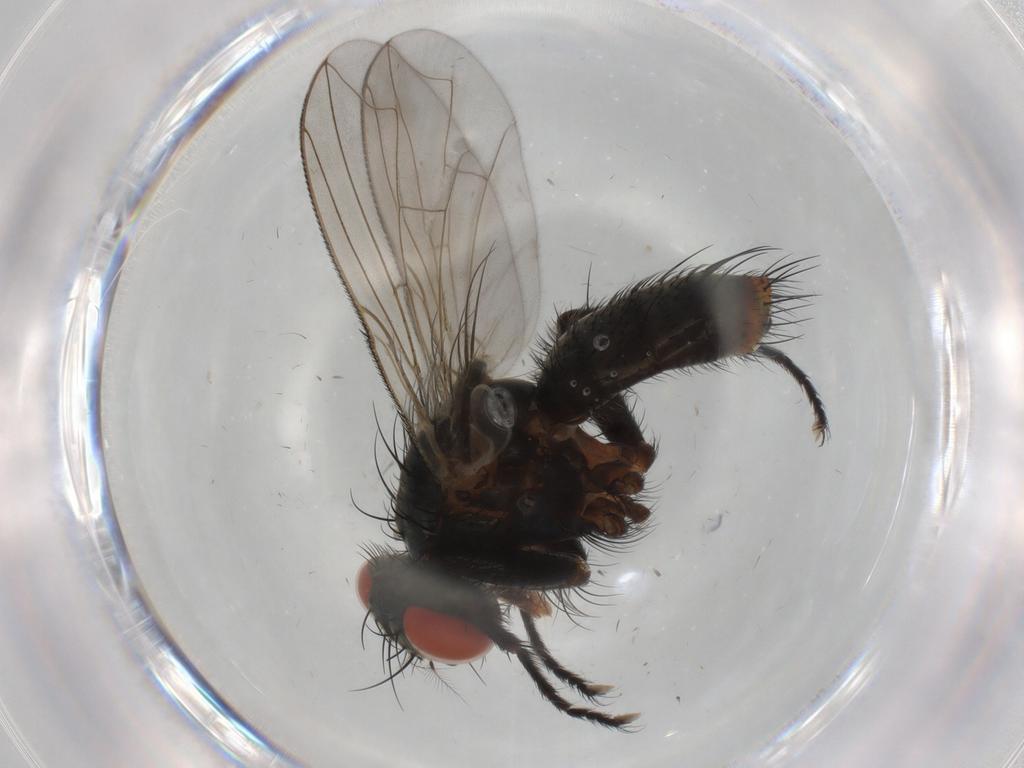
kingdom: Animalia
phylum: Arthropoda
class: Insecta
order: Diptera
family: Sarcophagidae
